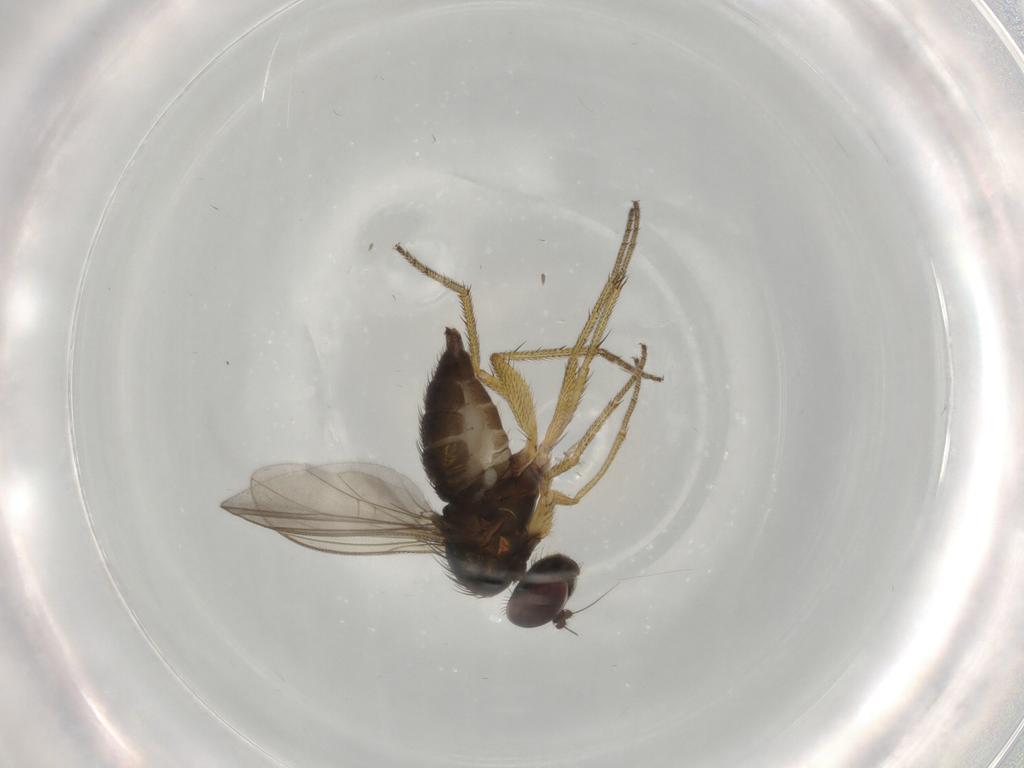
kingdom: Animalia
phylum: Arthropoda
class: Insecta
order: Diptera
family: Dolichopodidae
